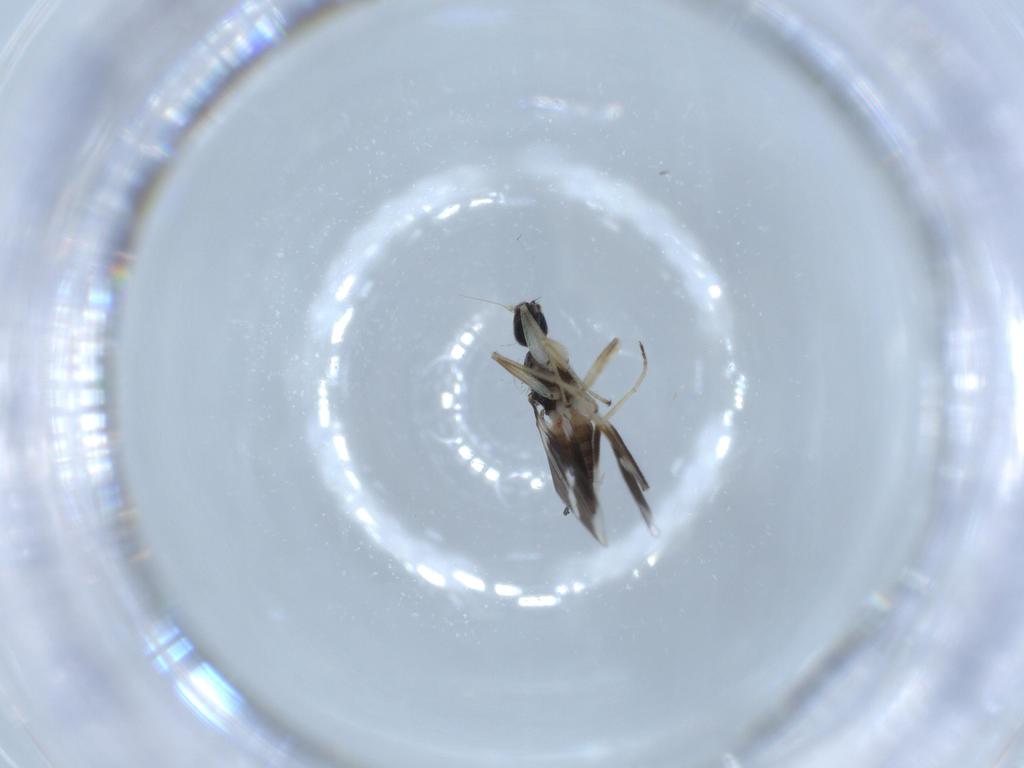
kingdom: Animalia
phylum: Arthropoda
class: Insecta
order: Diptera
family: Hybotidae
